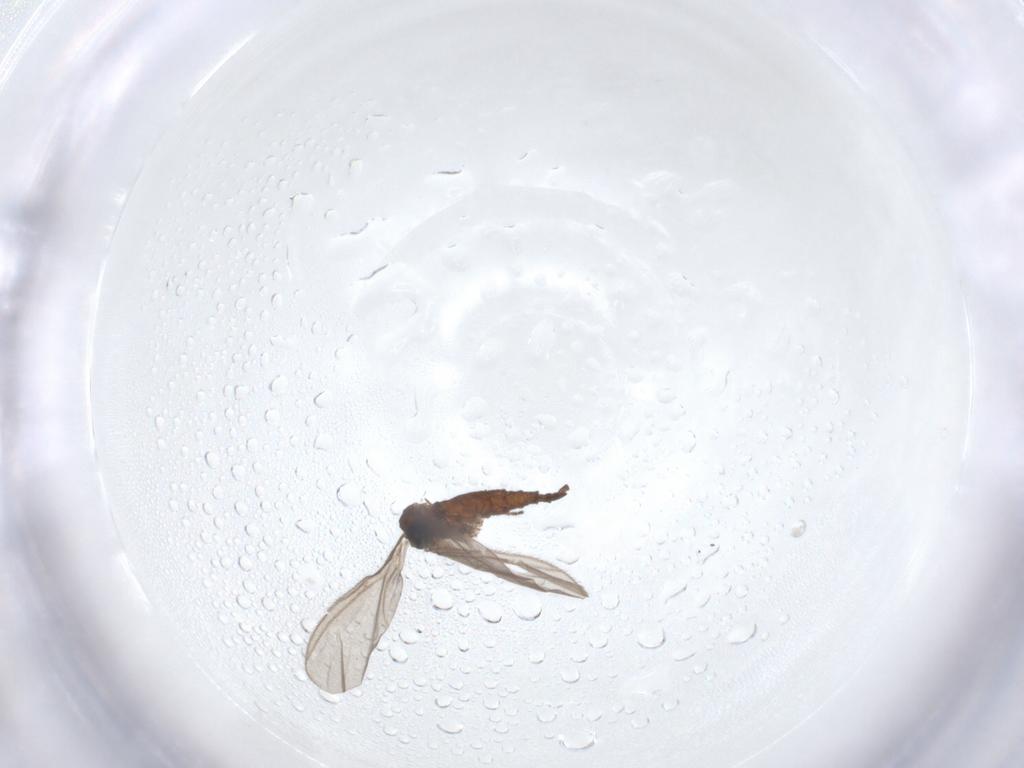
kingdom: Animalia
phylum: Arthropoda
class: Insecta
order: Diptera
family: Sciaridae
